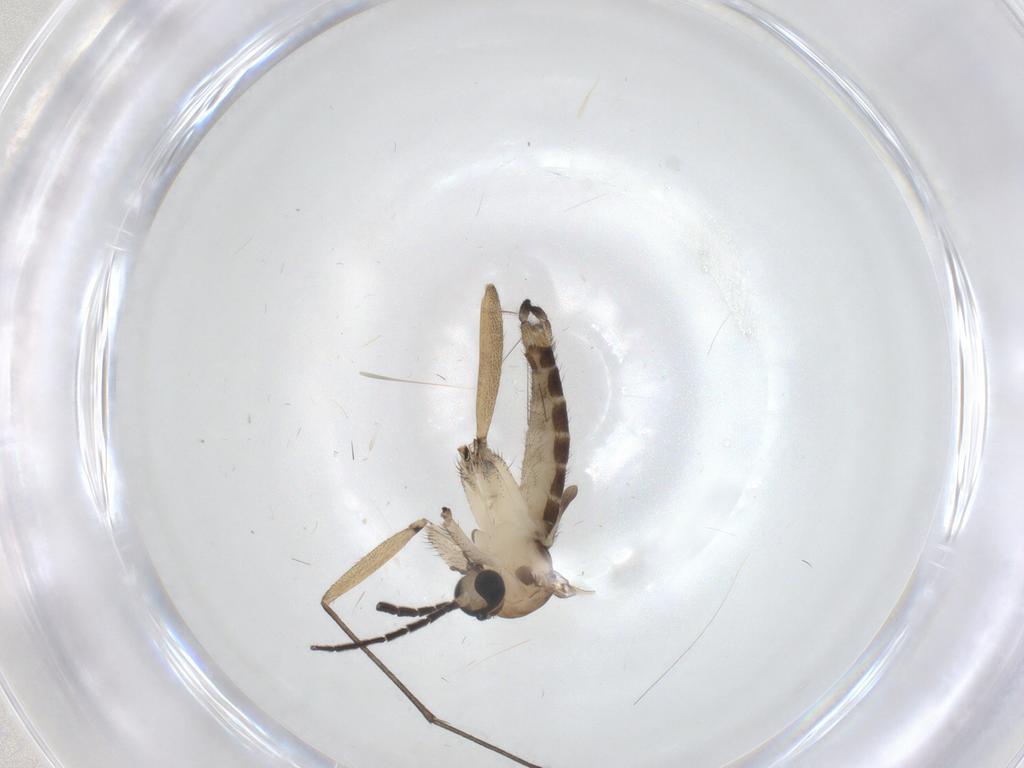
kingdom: Animalia
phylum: Arthropoda
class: Insecta
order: Diptera
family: Sciaridae
